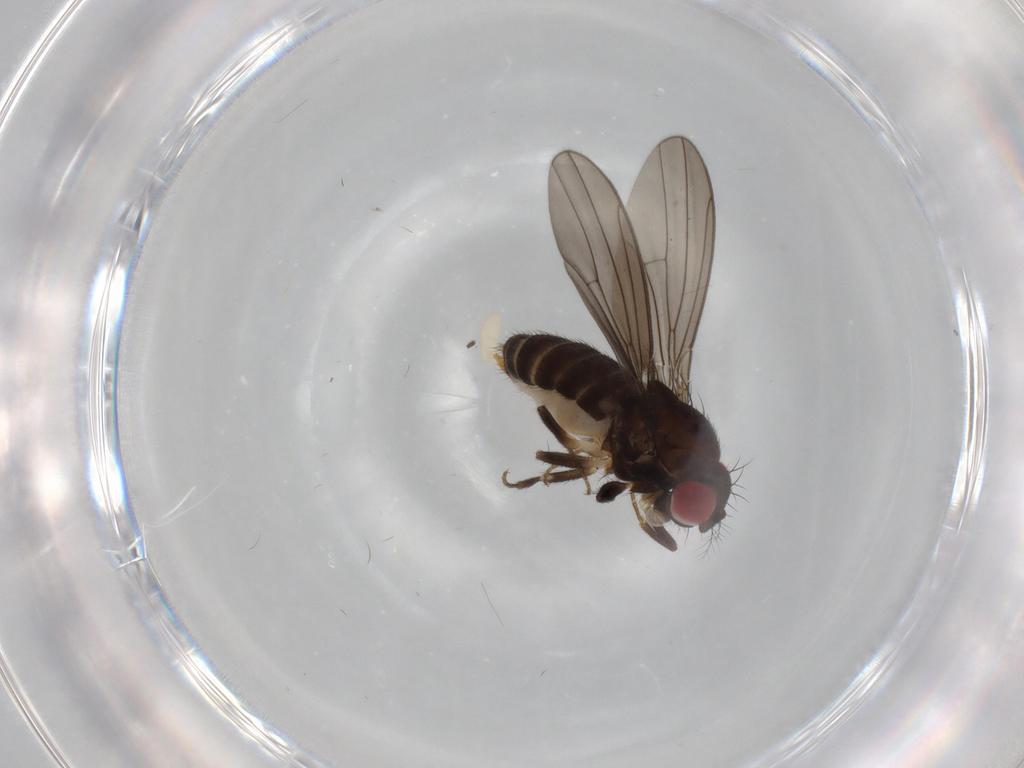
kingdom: Animalia
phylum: Arthropoda
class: Insecta
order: Diptera
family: Drosophilidae
